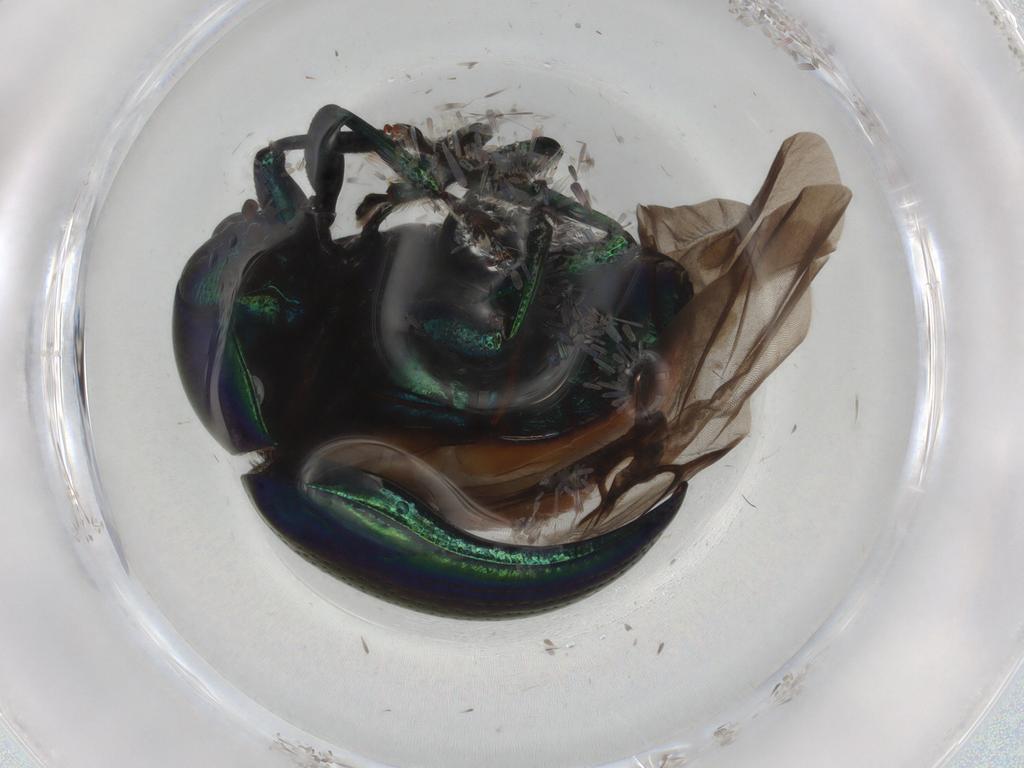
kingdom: Animalia
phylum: Arthropoda
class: Insecta
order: Coleoptera
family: Chrysomelidae
